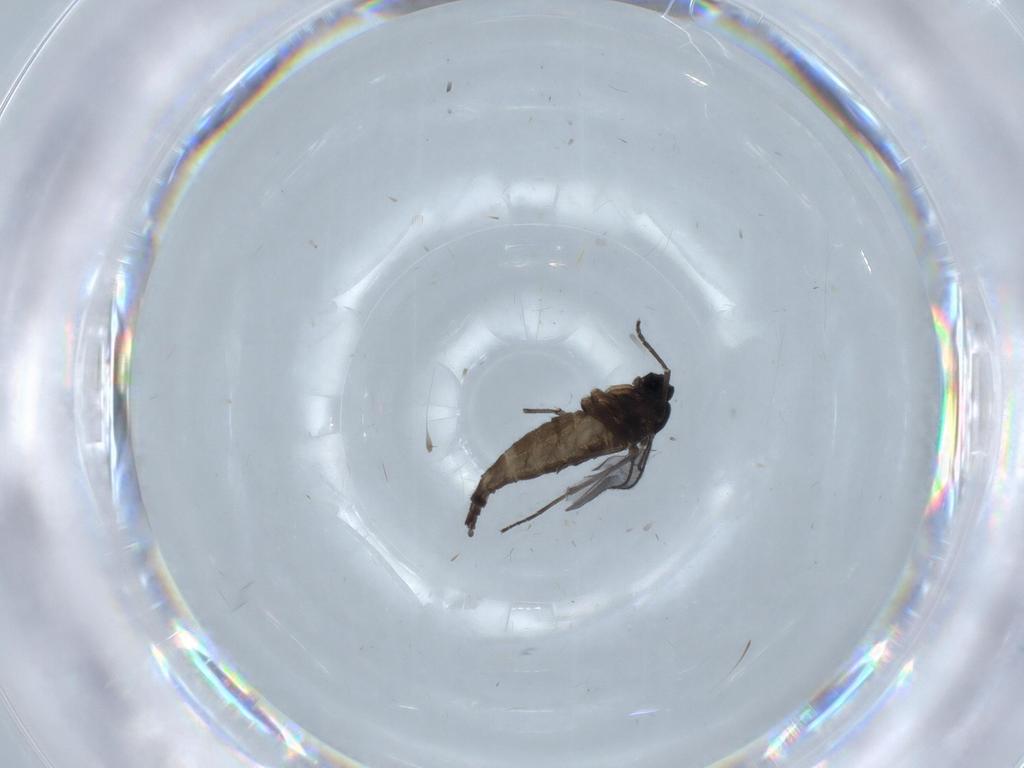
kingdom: Animalia
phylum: Arthropoda
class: Insecta
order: Diptera
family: Sciaridae
